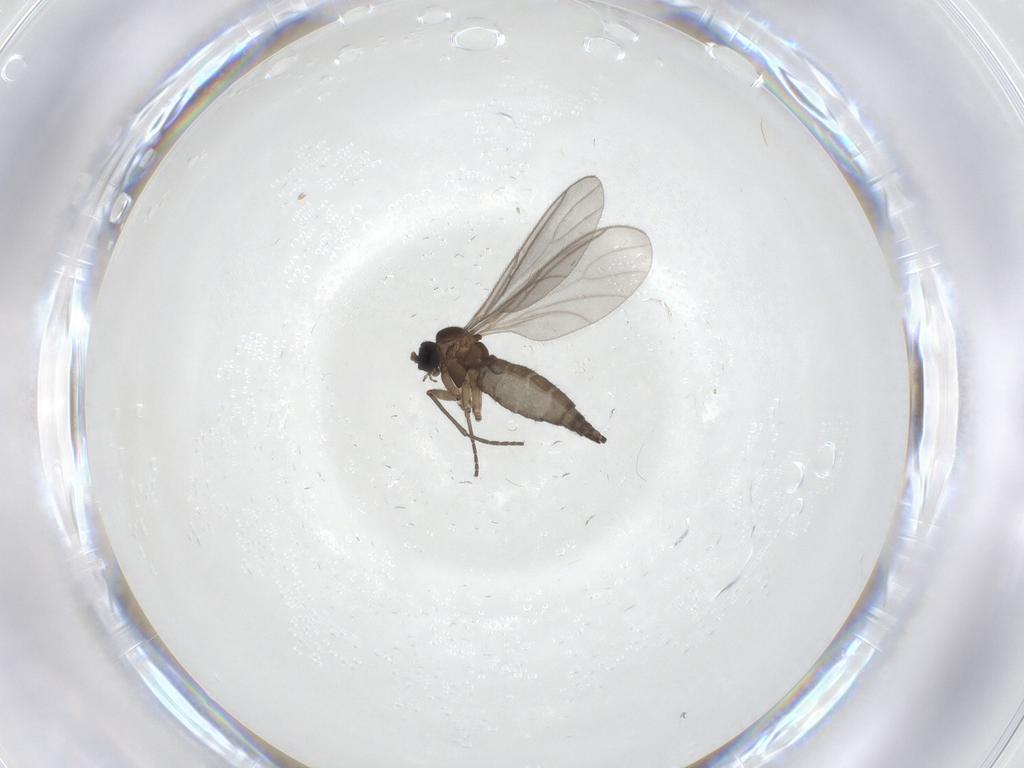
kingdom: Animalia
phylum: Arthropoda
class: Insecta
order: Diptera
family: Sciaridae
